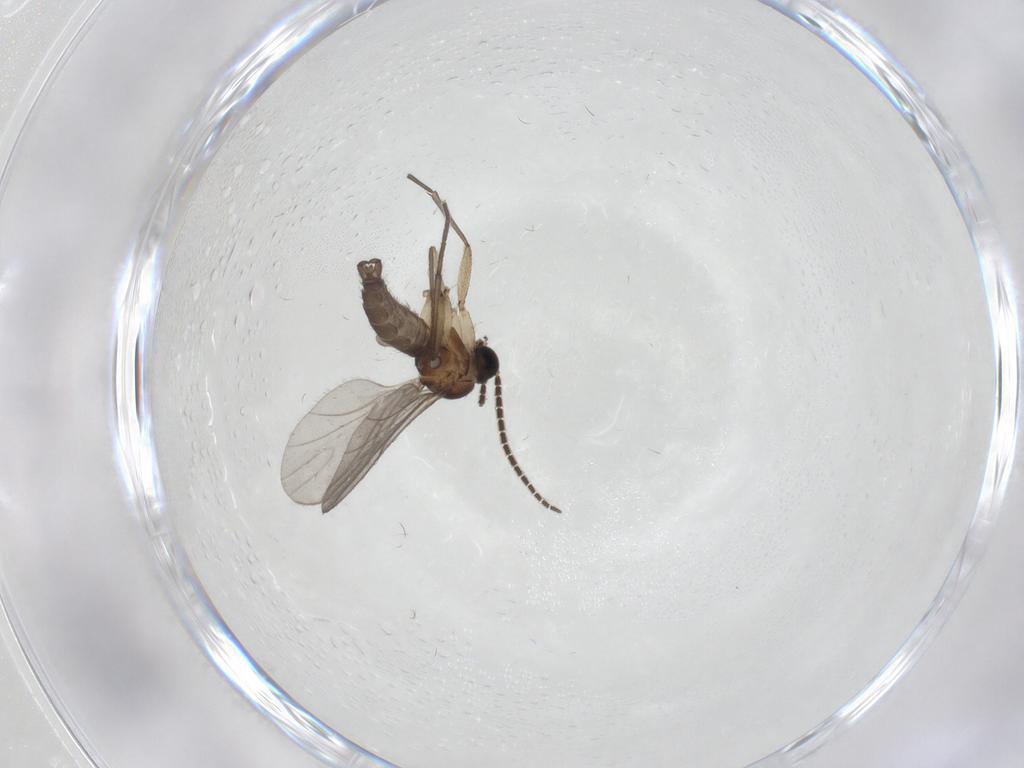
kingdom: Animalia
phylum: Arthropoda
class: Insecta
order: Diptera
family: Sciaridae
